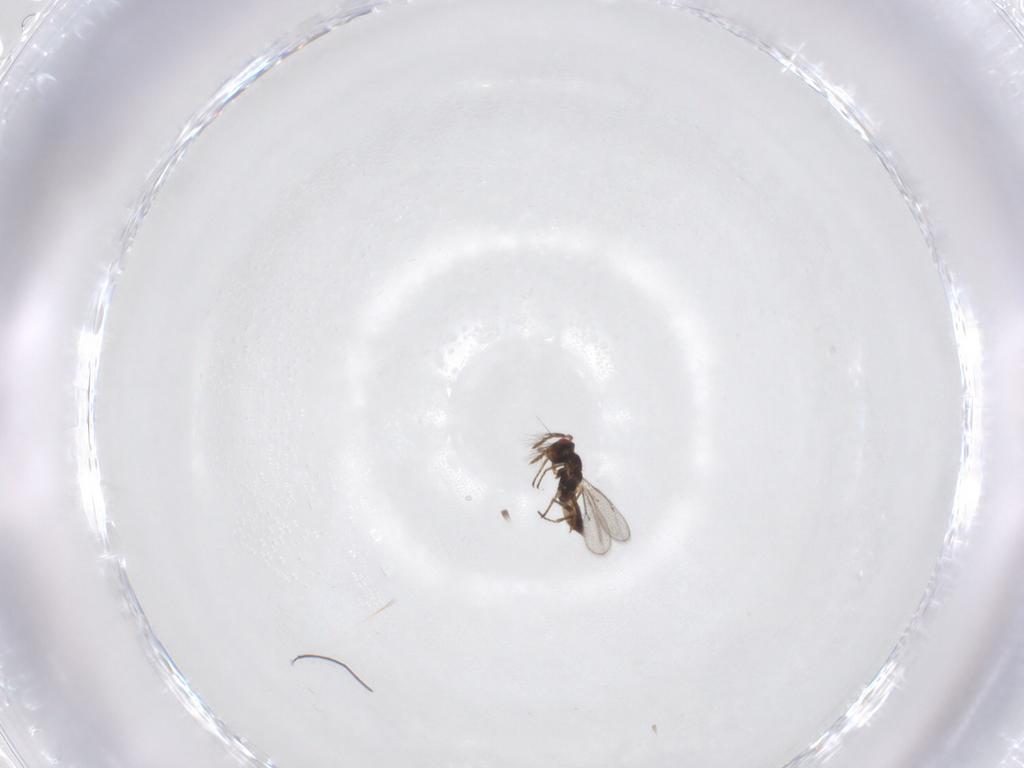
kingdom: Animalia
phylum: Arthropoda
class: Insecta
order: Hymenoptera
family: Eulophidae
